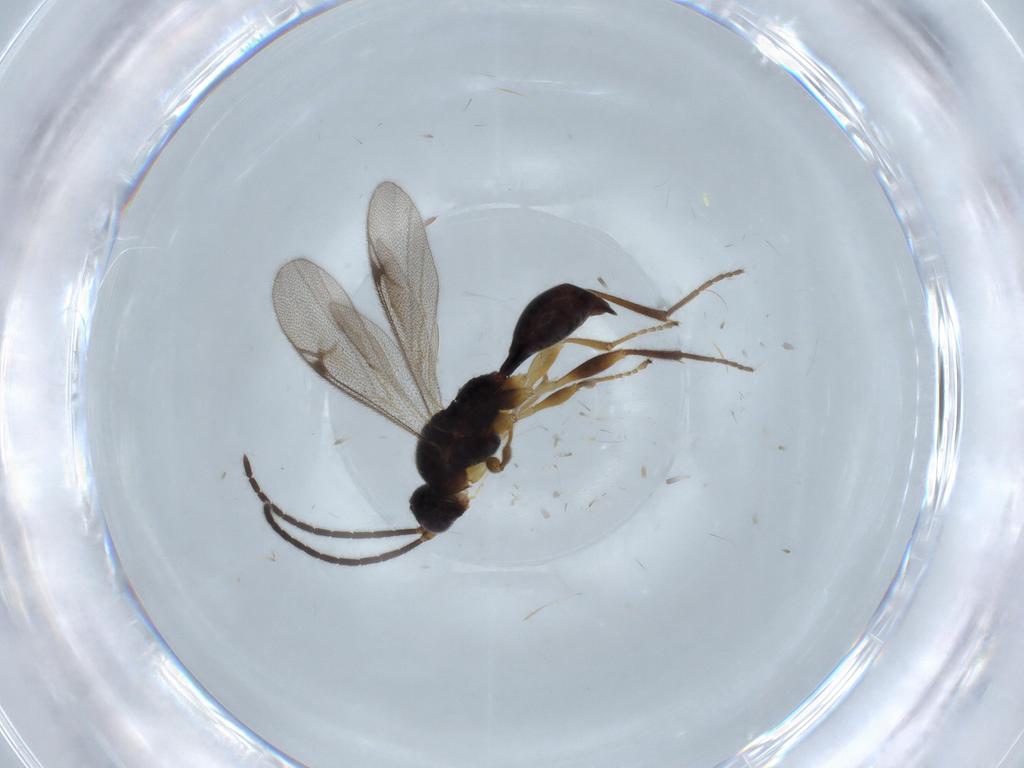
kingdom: Animalia
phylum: Arthropoda
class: Insecta
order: Hymenoptera
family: Proctotrupidae
